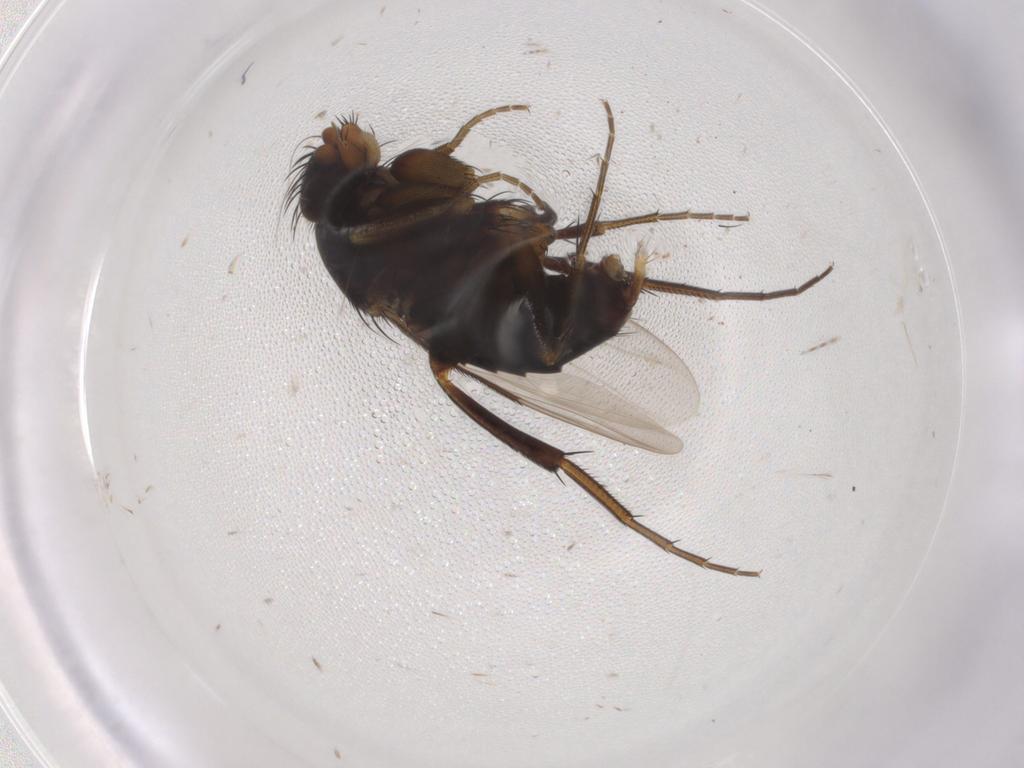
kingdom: Animalia
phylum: Arthropoda
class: Insecta
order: Diptera
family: Phoridae
